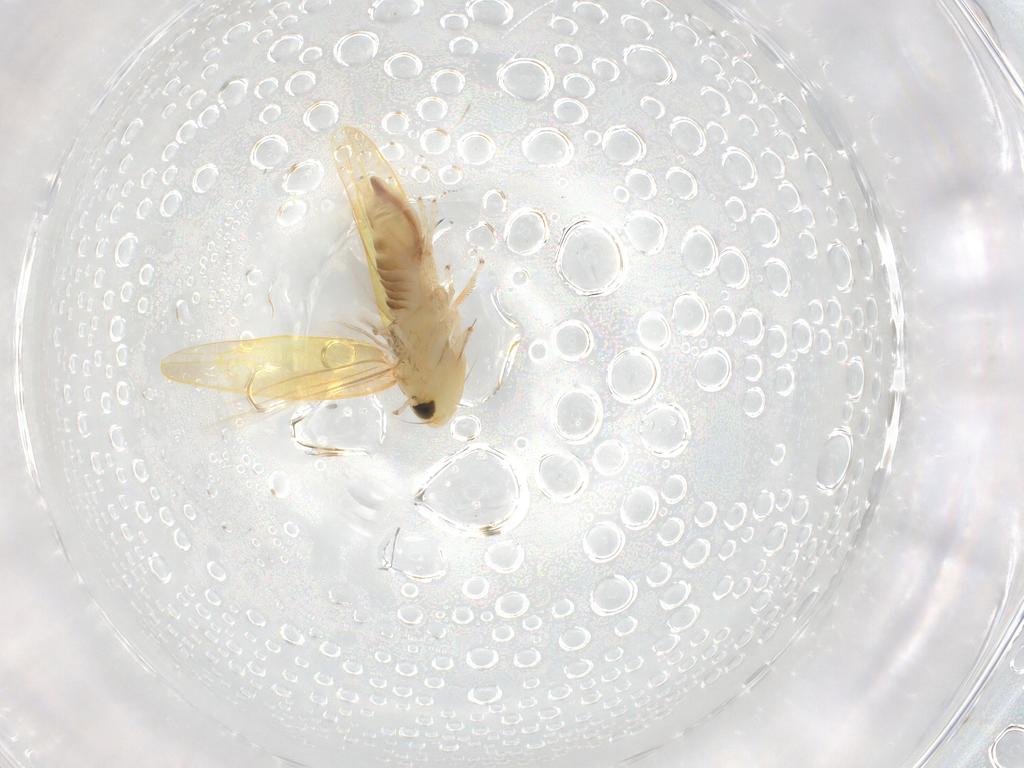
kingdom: Animalia
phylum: Arthropoda
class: Insecta
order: Hemiptera
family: Cicadellidae
